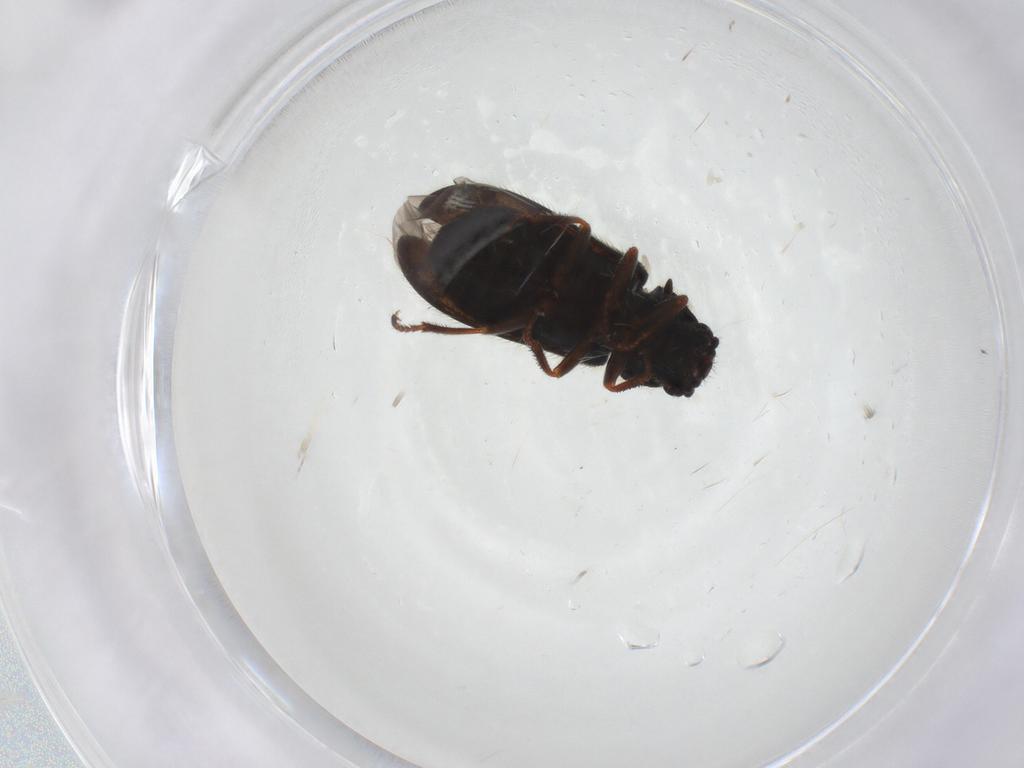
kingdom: Animalia
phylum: Arthropoda
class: Insecta
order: Coleoptera
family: Melyridae
